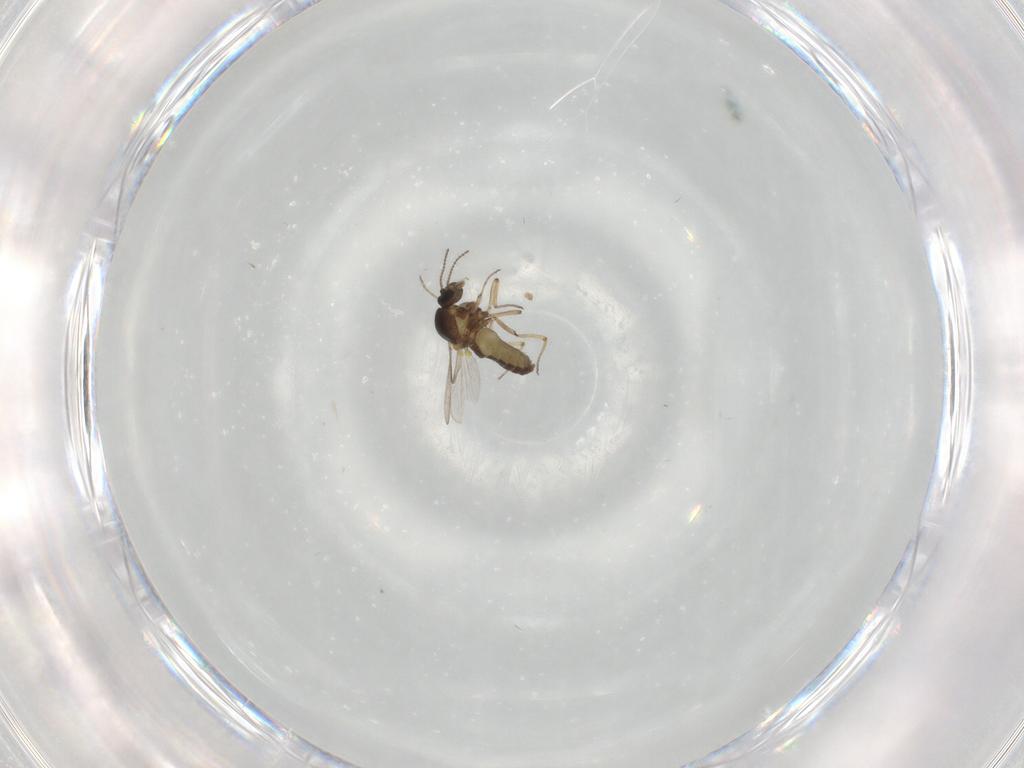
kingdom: Animalia
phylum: Arthropoda
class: Insecta
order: Diptera
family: Ceratopogonidae
